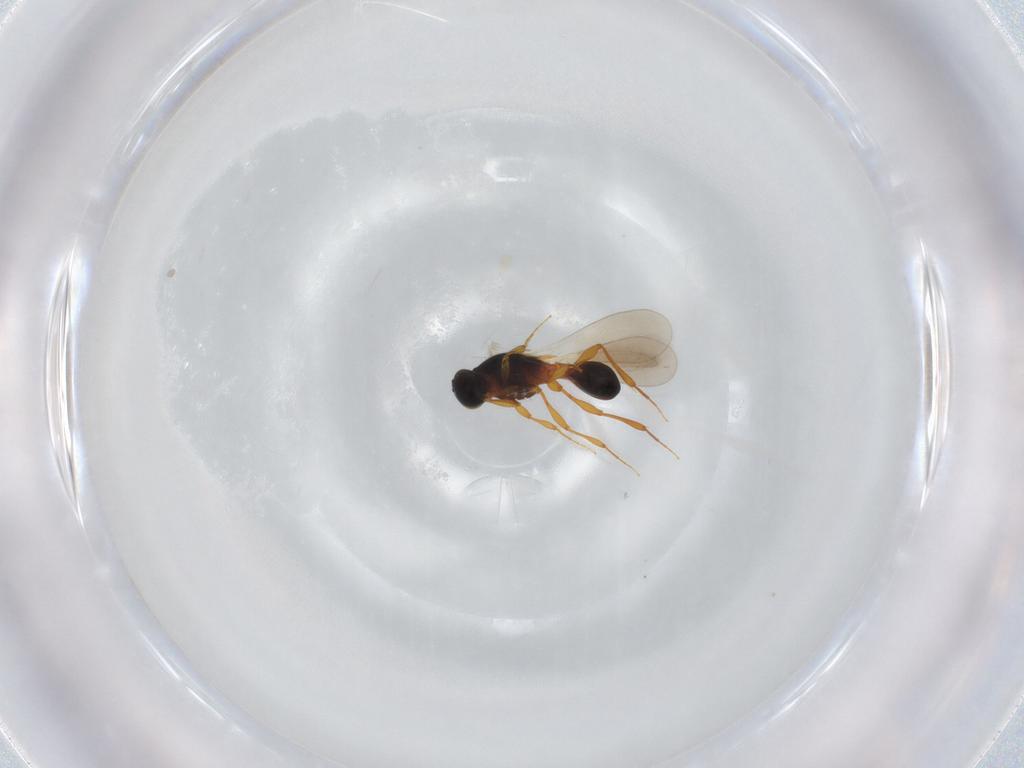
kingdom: Animalia
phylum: Arthropoda
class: Insecta
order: Hymenoptera
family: Platygastridae
